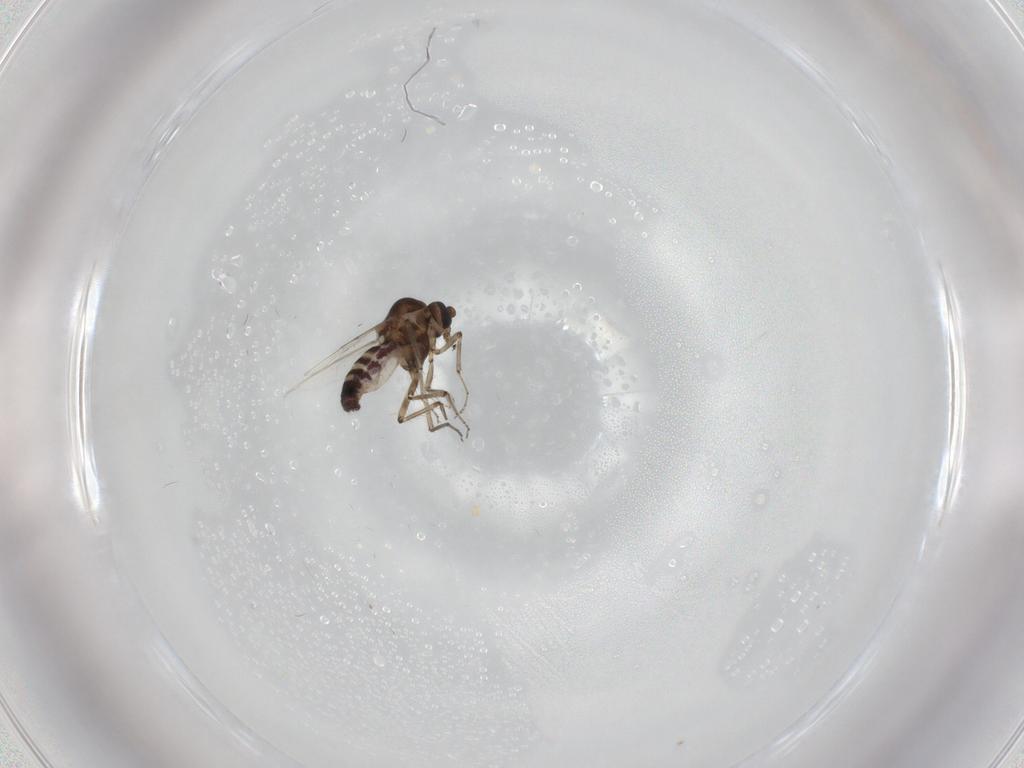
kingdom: Animalia
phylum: Arthropoda
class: Insecta
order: Diptera
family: Ceratopogonidae
